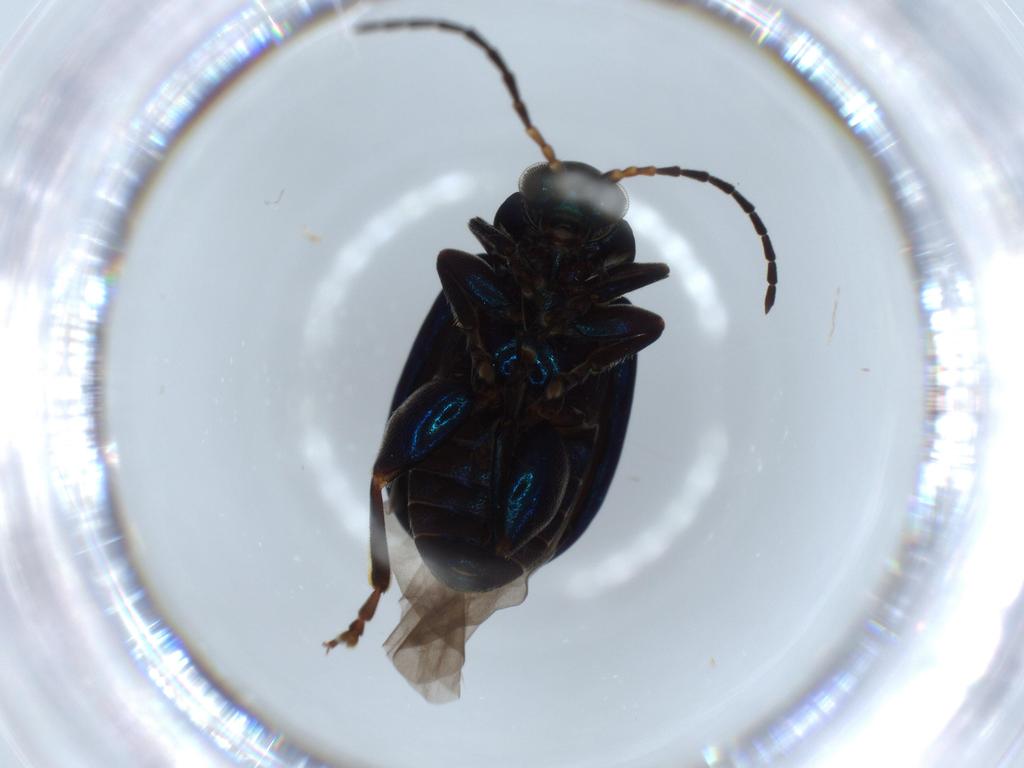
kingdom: Animalia
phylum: Arthropoda
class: Insecta
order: Coleoptera
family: Chrysomelidae
